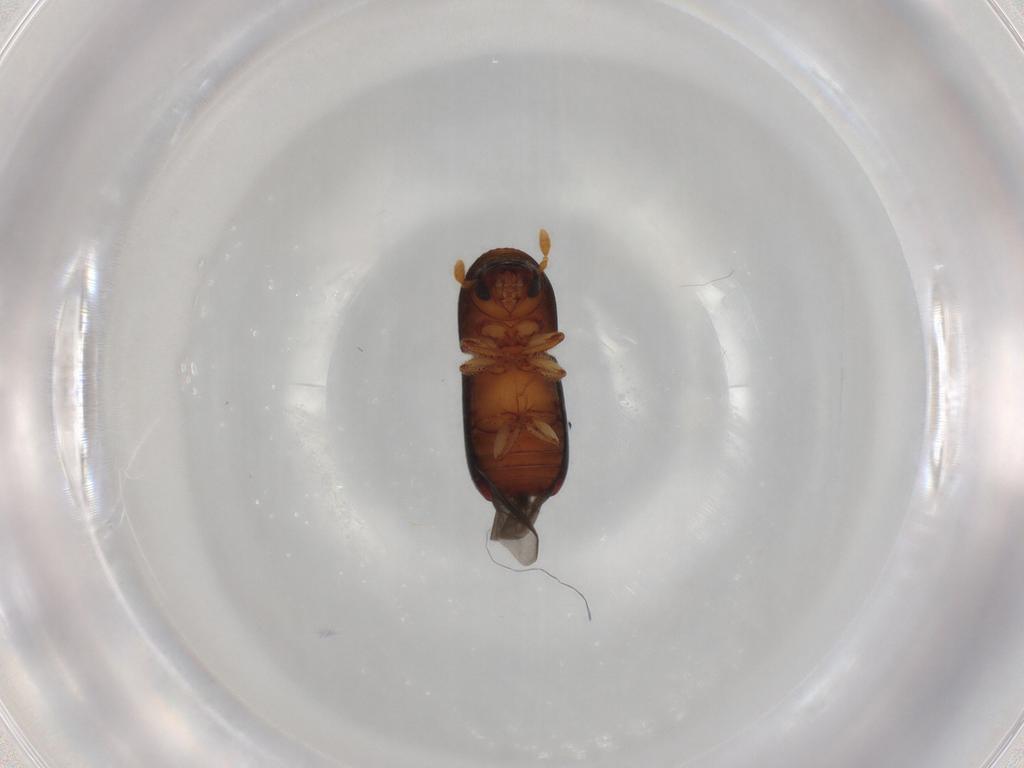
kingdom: Animalia
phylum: Arthropoda
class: Insecta
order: Coleoptera
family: Curculionidae
